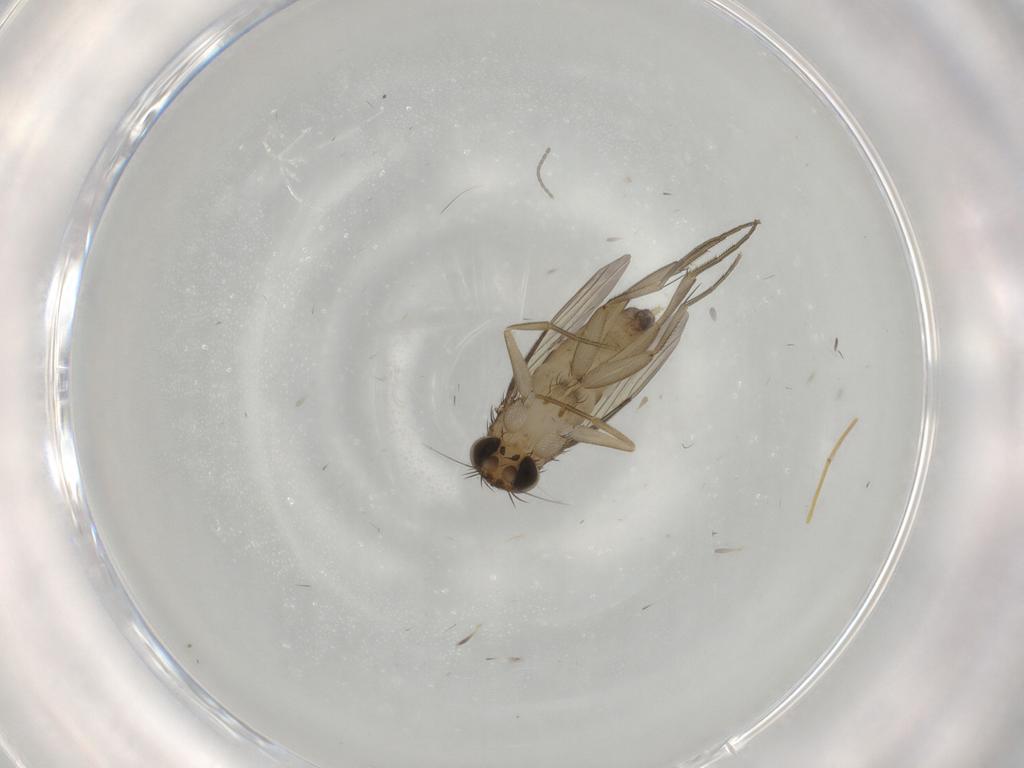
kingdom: Animalia
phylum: Arthropoda
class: Insecta
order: Diptera
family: Phoridae
